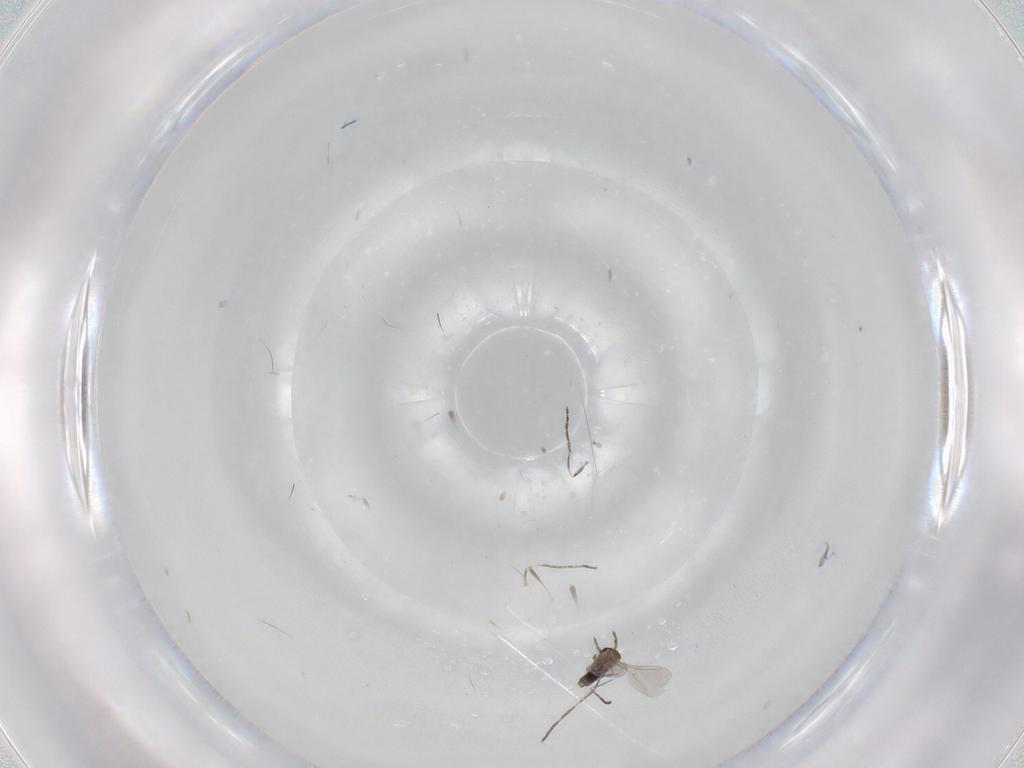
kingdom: Animalia
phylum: Arthropoda
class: Insecta
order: Diptera
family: Cecidomyiidae
